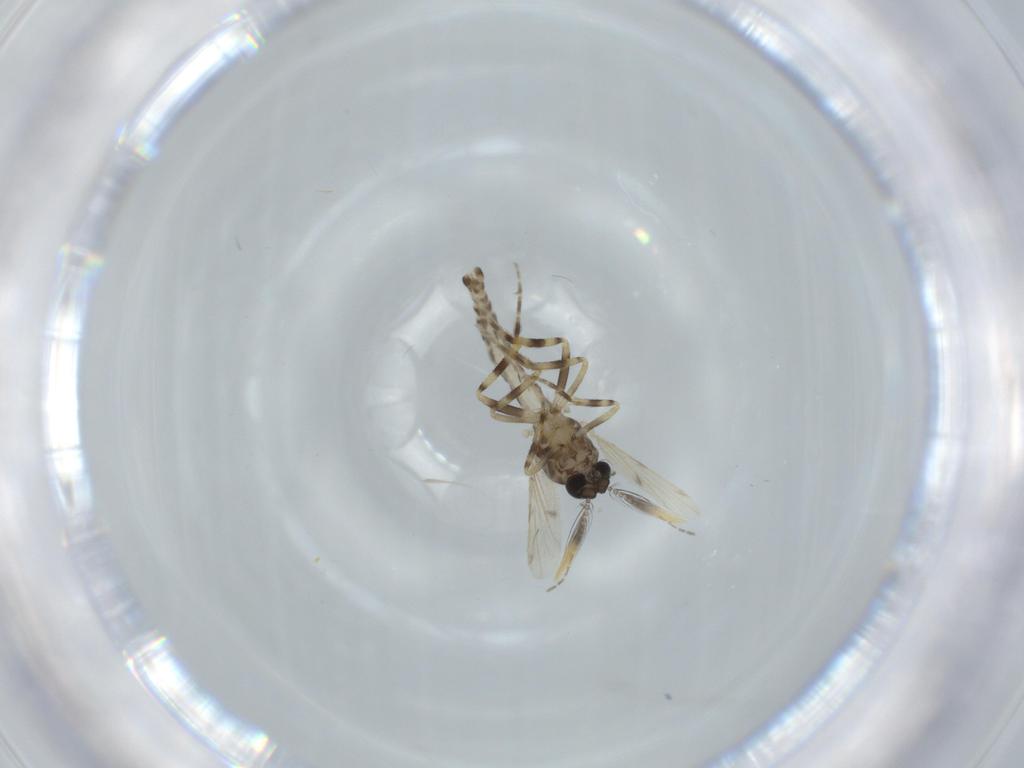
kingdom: Animalia
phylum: Arthropoda
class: Insecta
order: Diptera
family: Cecidomyiidae
